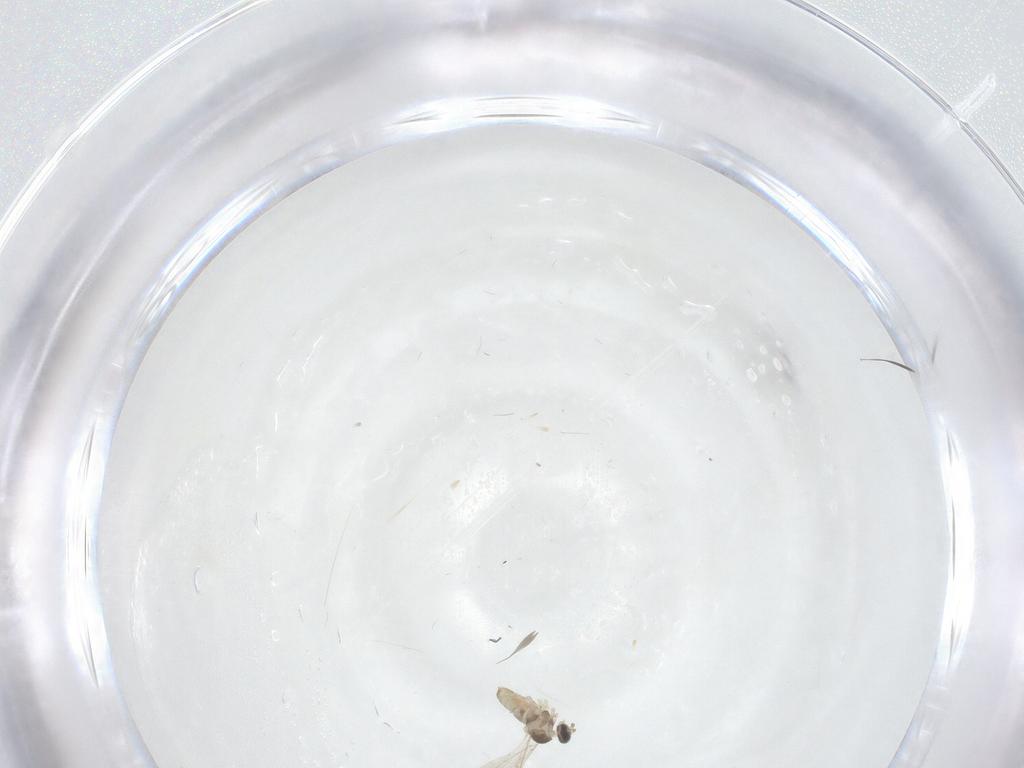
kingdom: Animalia
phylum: Arthropoda
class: Insecta
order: Diptera
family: Cecidomyiidae
